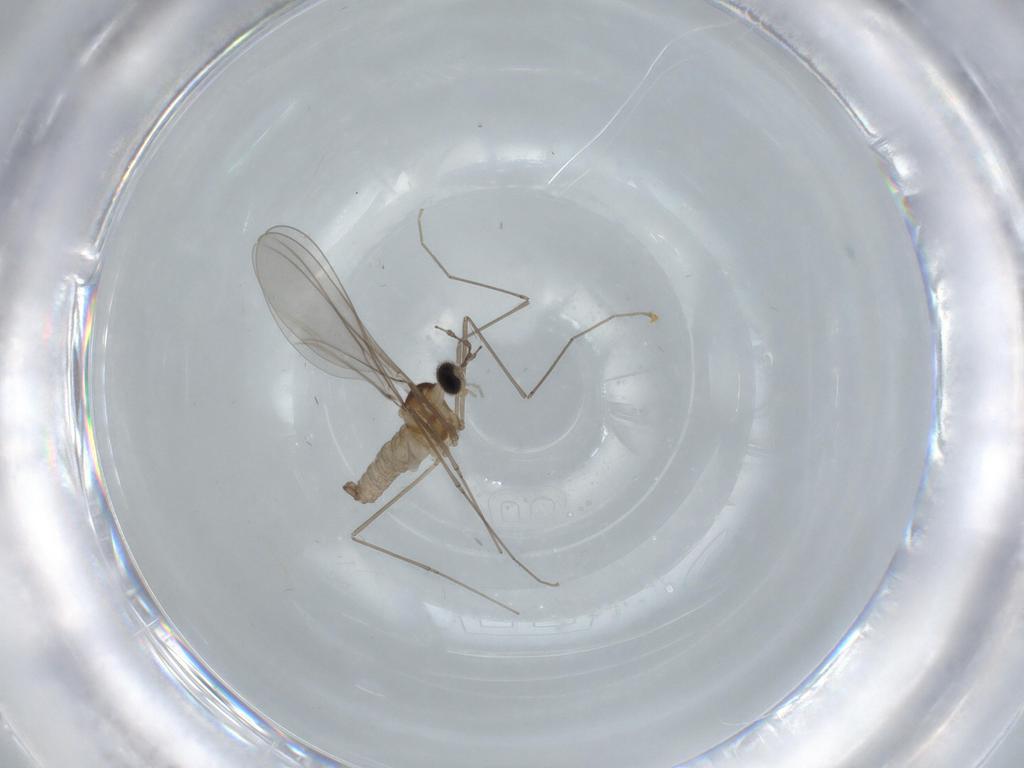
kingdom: Animalia
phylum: Arthropoda
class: Insecta
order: Diptera
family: Cecidomyiidae
